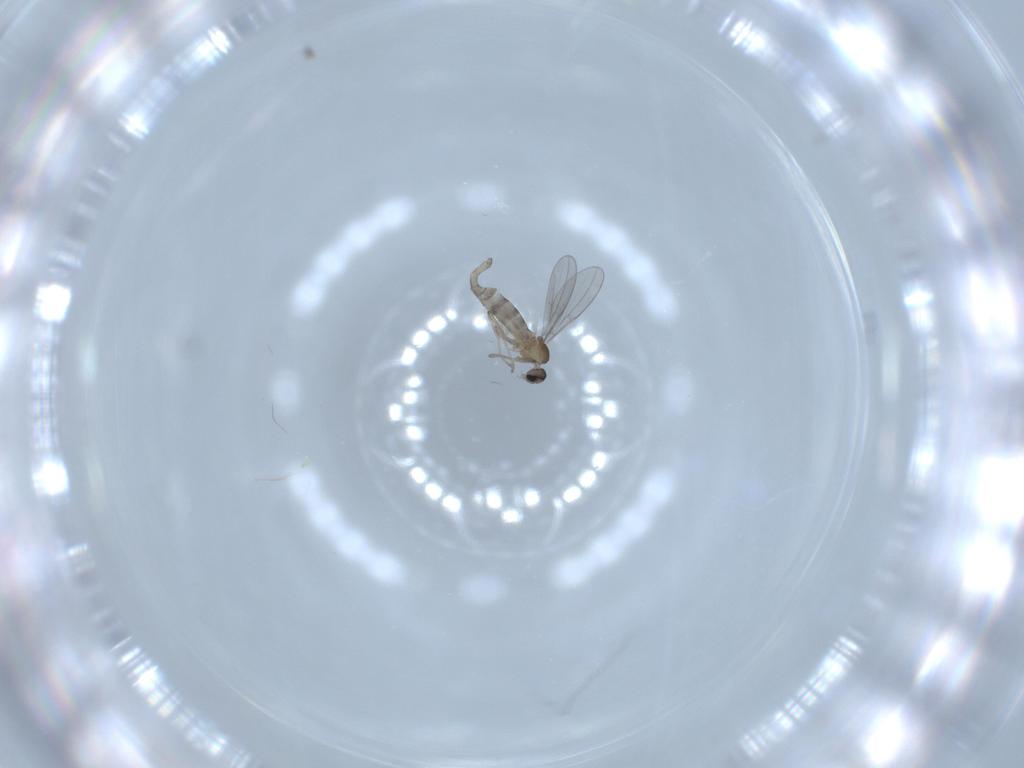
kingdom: Animalia
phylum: Arthropoda
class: Insecta
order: Diptera
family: Cecidomyiidae
